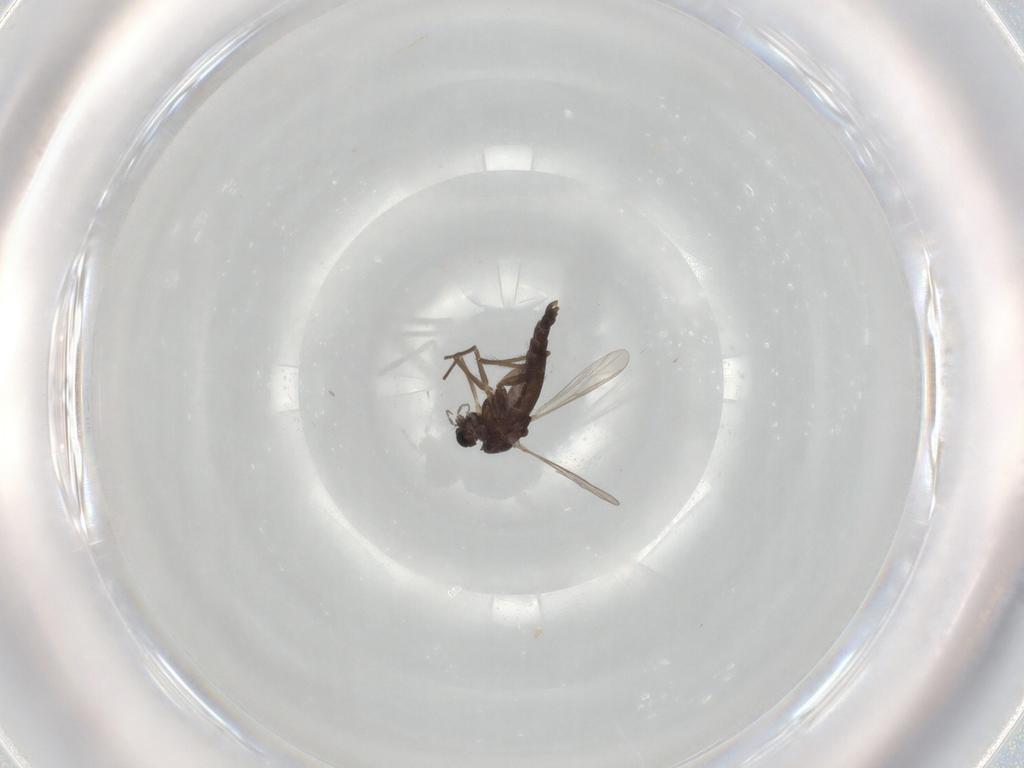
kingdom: Animalia
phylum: Arthropoda
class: Insecta
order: Diptera
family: Chironomidae
